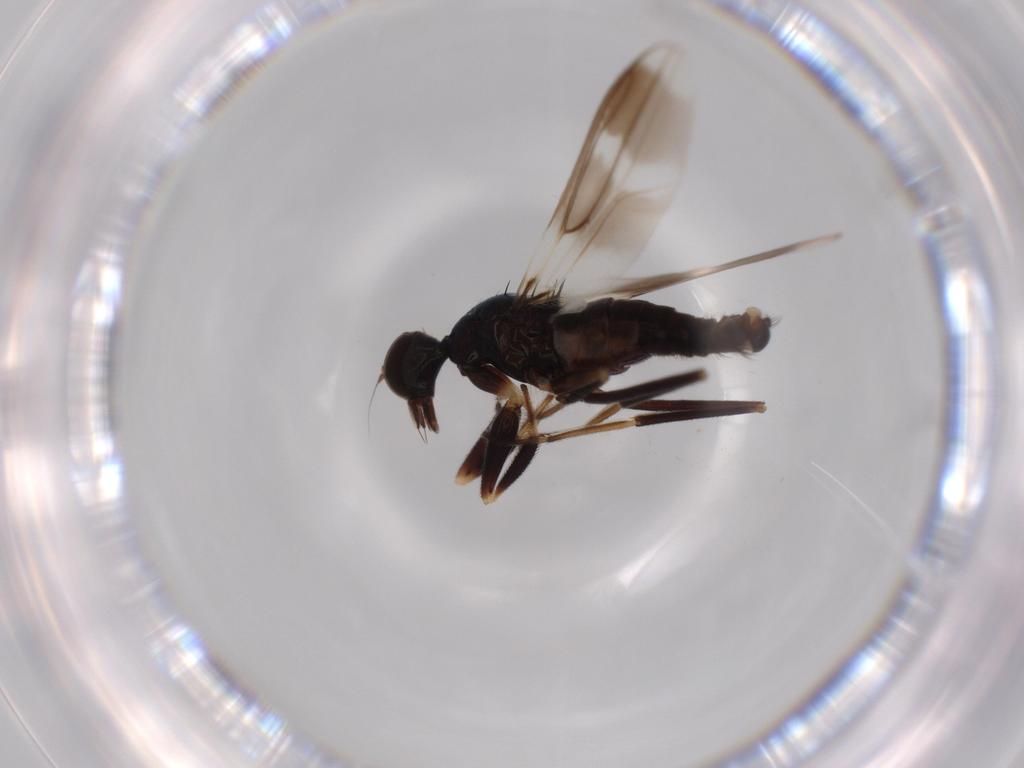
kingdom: Animalia
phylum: Arthropoda
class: Insecta
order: Diptera
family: Hybotidae
